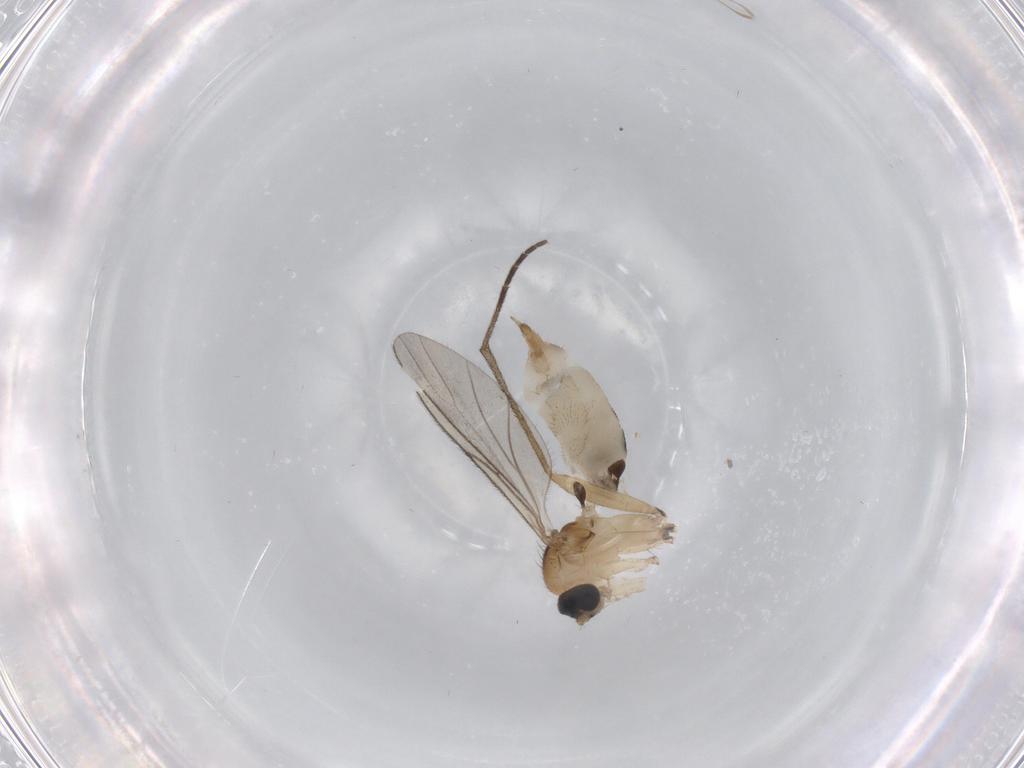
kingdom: Animalia
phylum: Arthropoda
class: Insecta
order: Diptera
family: Sciaridae
